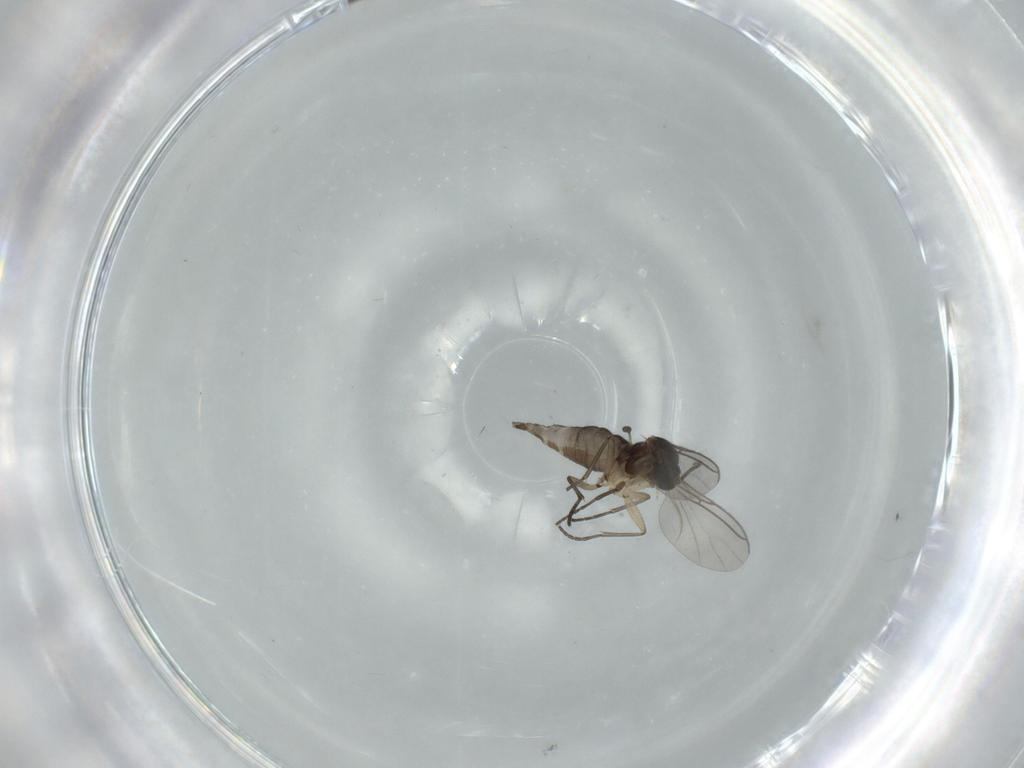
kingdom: Animalia
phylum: Arthropoda
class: Insecta
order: Diptera
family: Sciaridae
